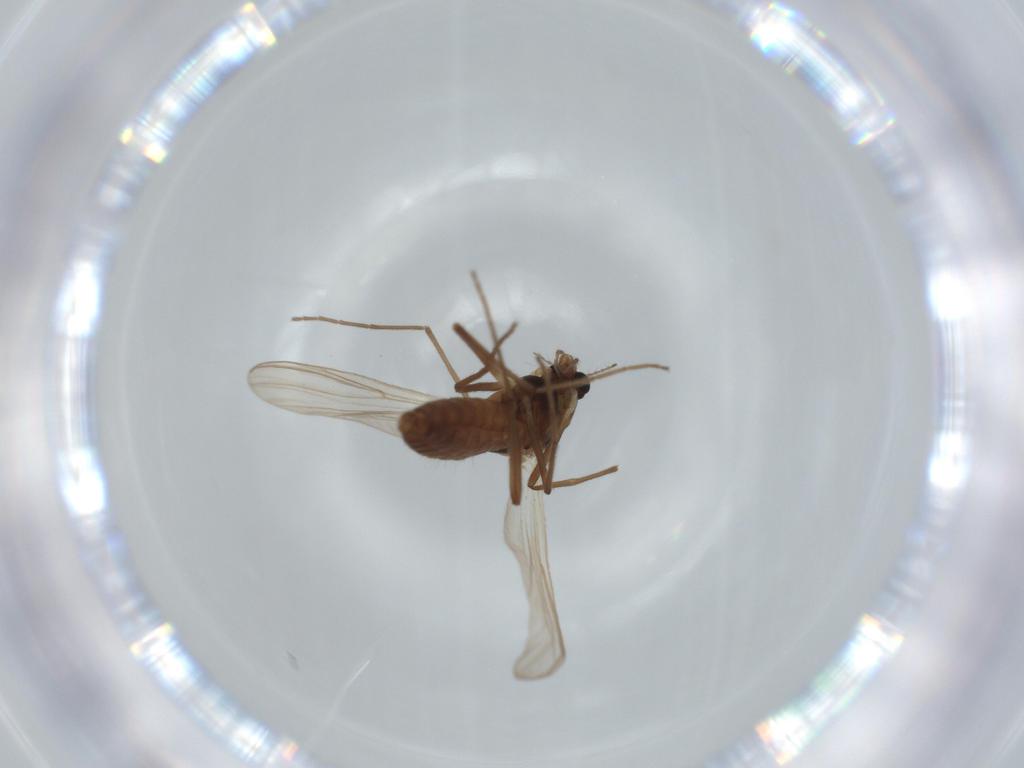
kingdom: Animalia
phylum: Arthropoda
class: Insecta
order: Diptera
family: Chironomidae
